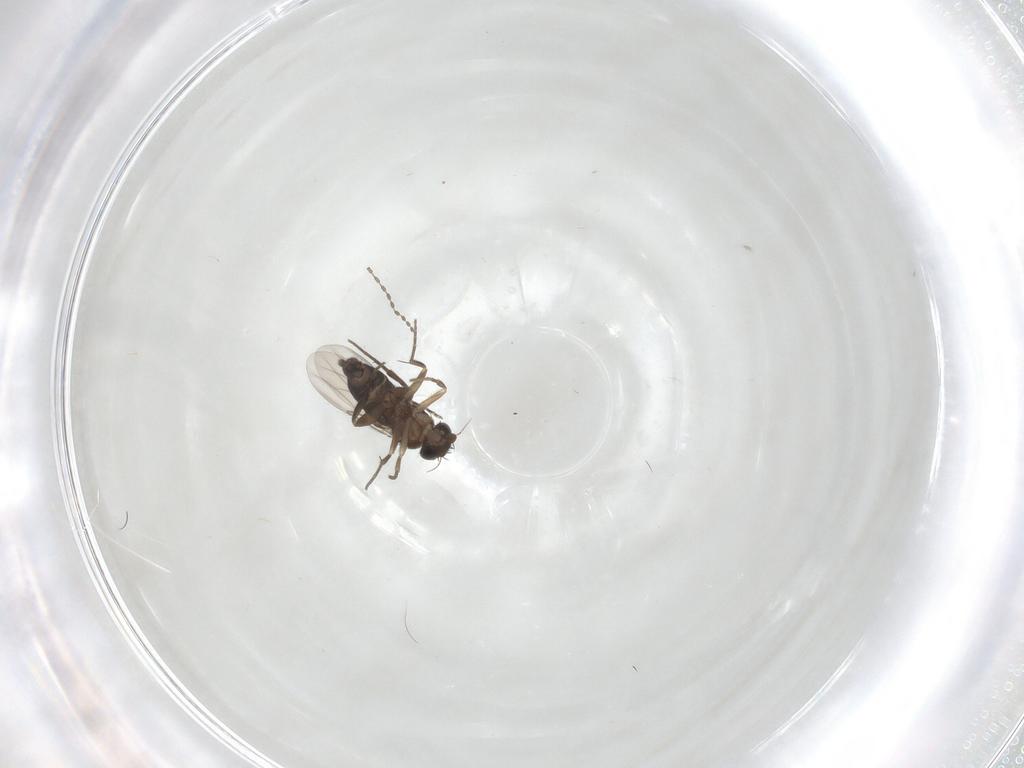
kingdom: Animalia
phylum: Arthropoda
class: Insecta
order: Diptera
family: Phoridae
